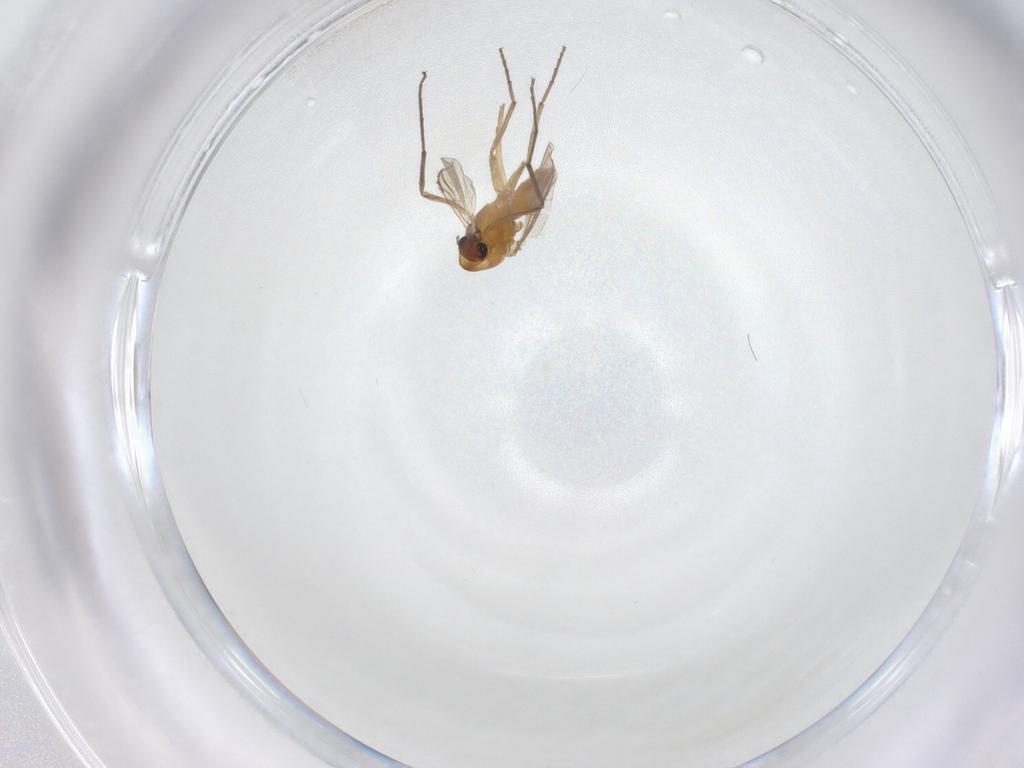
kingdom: Animalia
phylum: Arthropoda
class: Insecta
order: Diptera
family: Chironomidae
